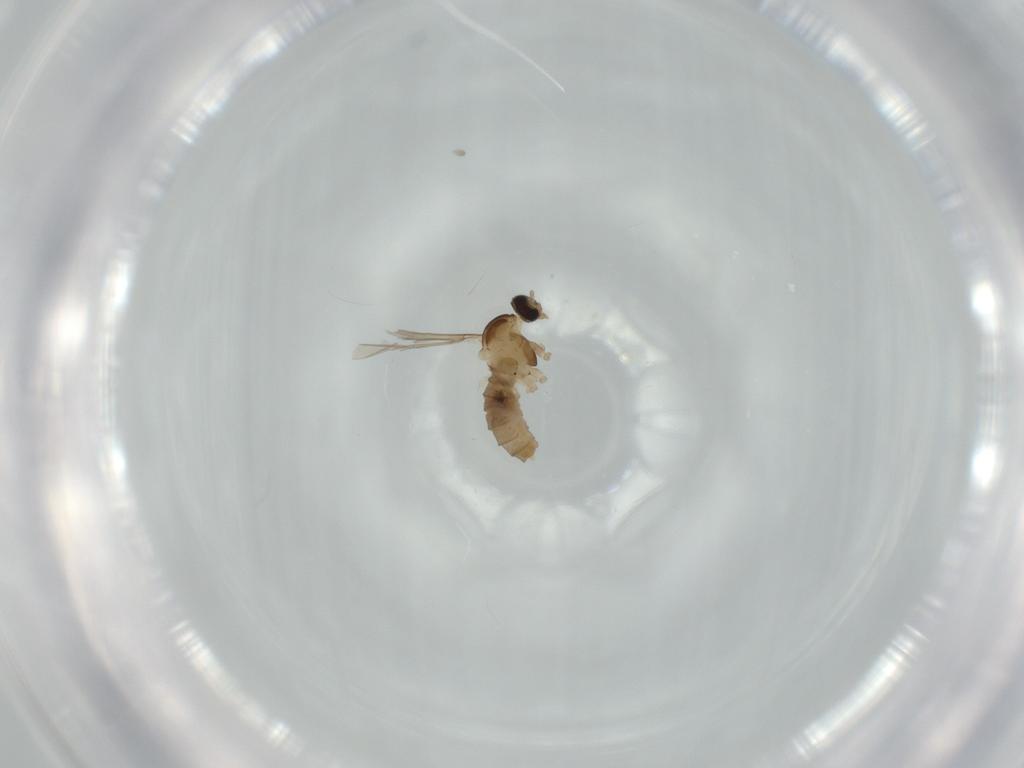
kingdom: Animalia
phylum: Arthropoda
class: Insecta
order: Diptera
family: Cecidomyiidae
